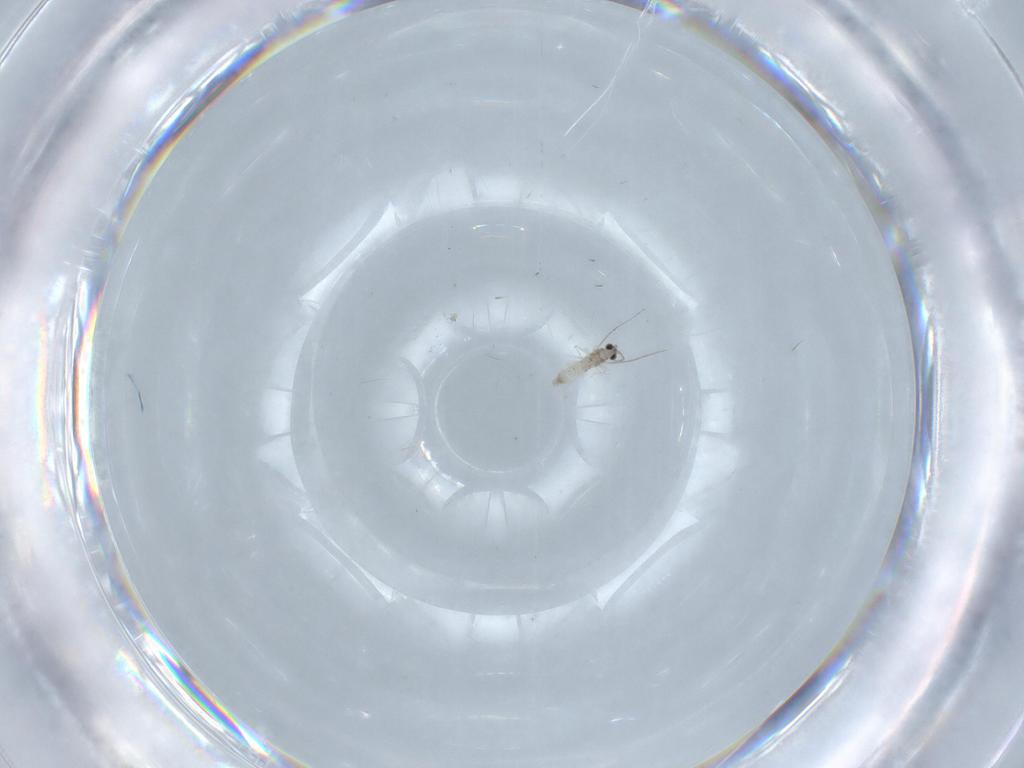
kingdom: Animalia
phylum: Arthropoda
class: Insecta
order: Diptera
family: Cecidomyiidae
